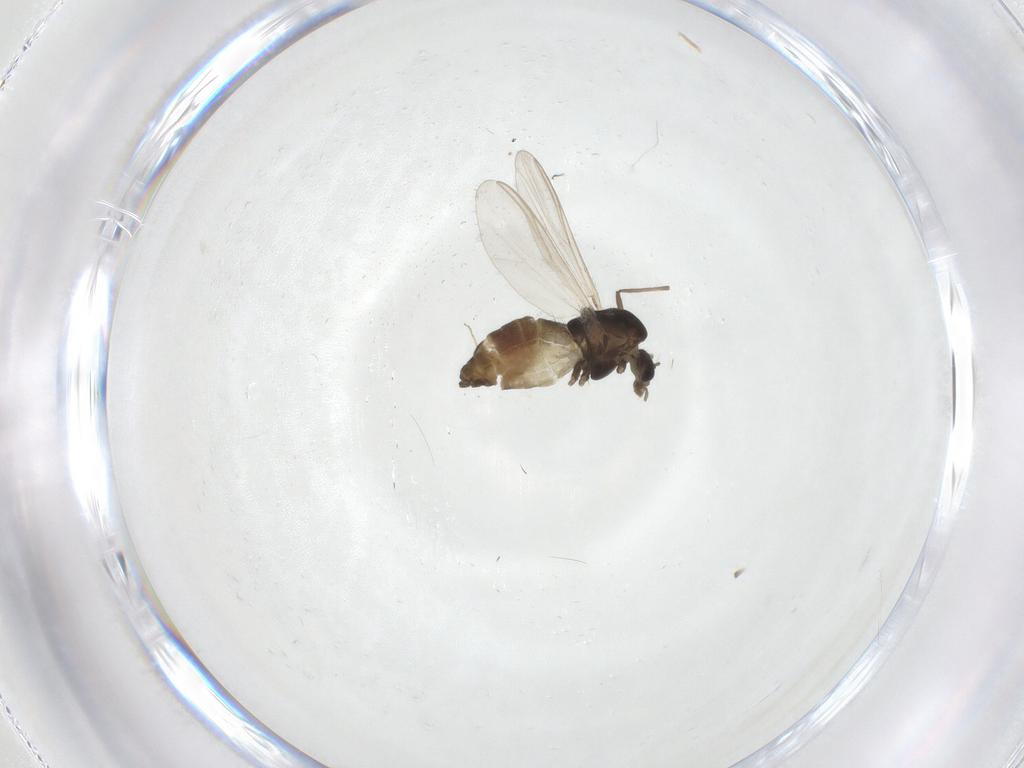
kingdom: Animalia
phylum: Arthropoda
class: Insecta
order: Diptera
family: Chironomidae
